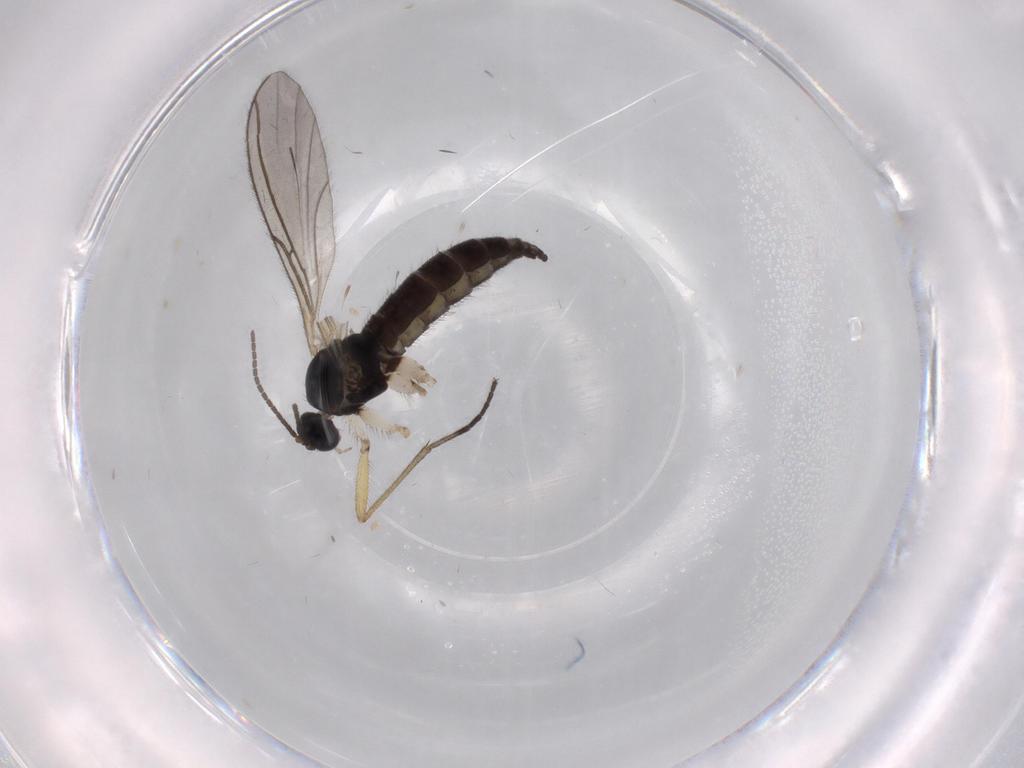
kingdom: Animalia
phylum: Arthropoda
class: Insecta
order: Diptera
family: Sciaridae
